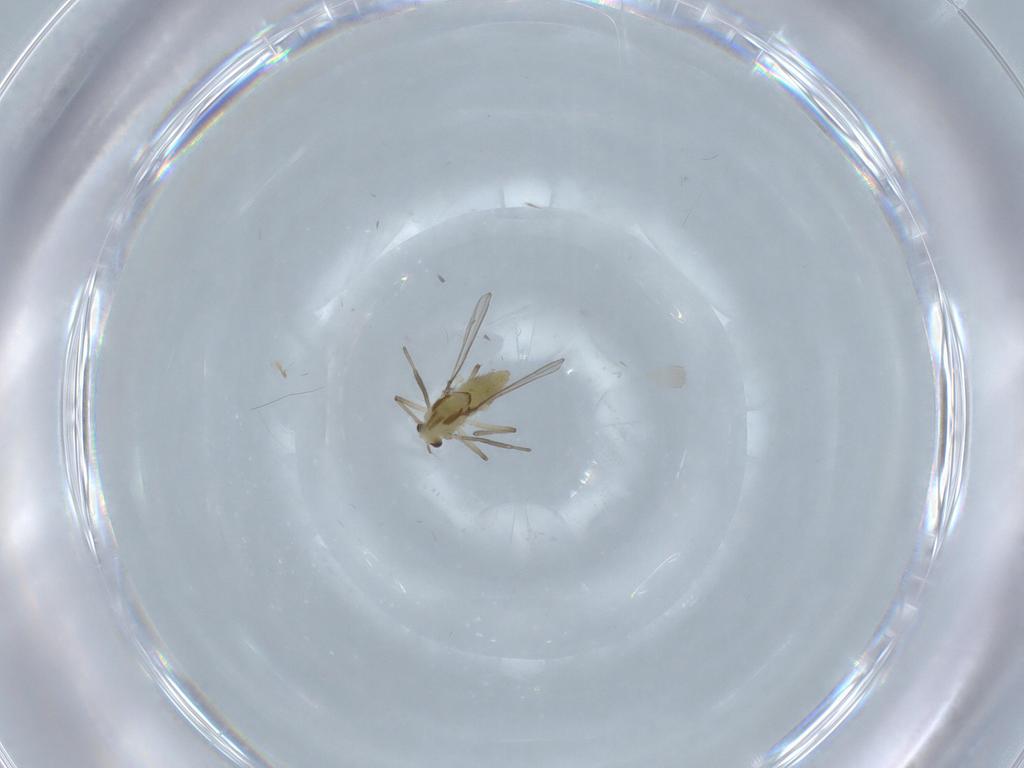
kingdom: Animalia
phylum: Arthropoda
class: Insecta
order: Diptera
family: Chironomidae
